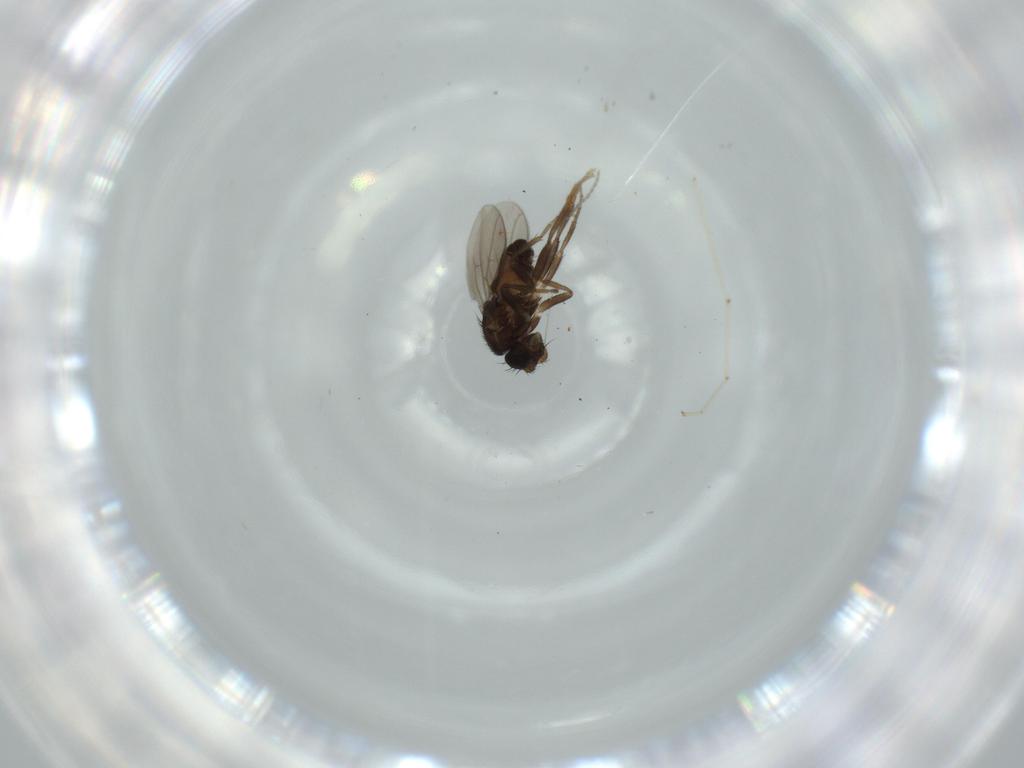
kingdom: Animalia
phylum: Arthropoda
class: Insecta
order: Diptera
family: Sphaeroceridae
